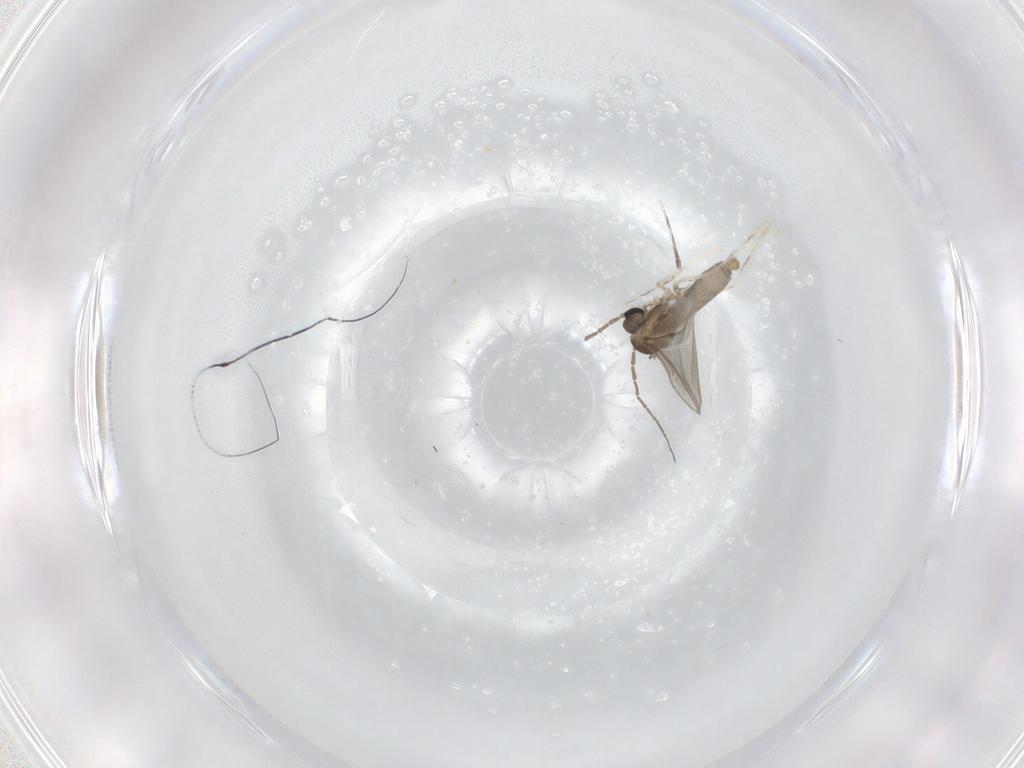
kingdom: Animalia
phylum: Arthropoda
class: Insecta
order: Diptera
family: Cecidomyiidae
